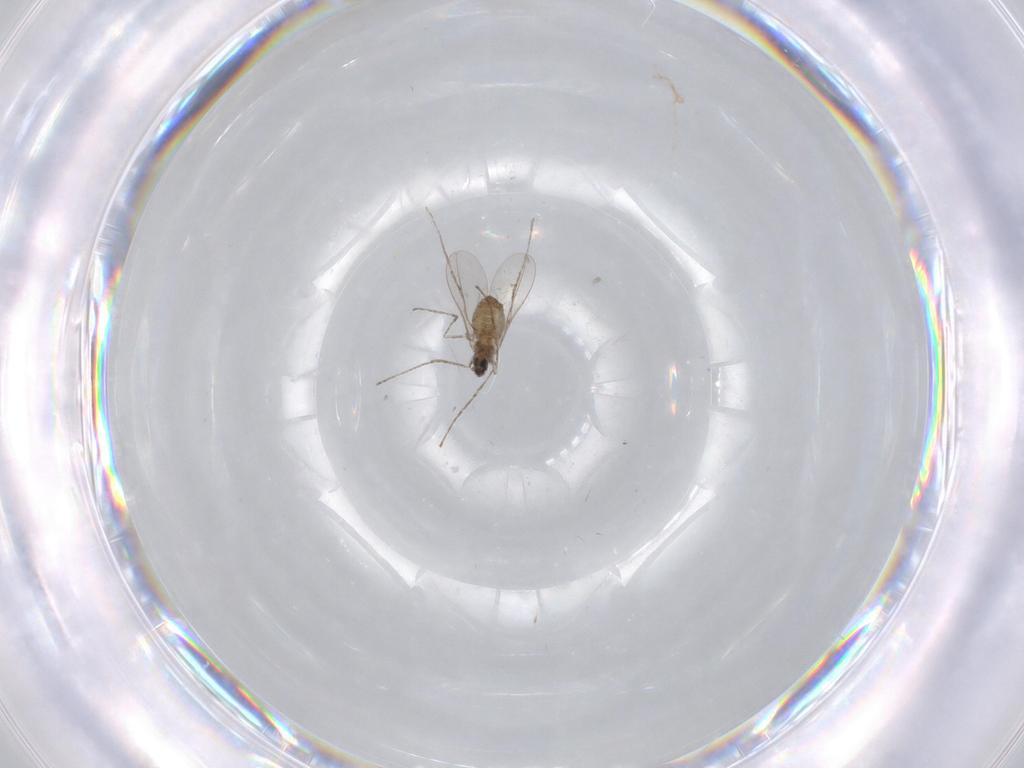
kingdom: Animalia
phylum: Arthropoda
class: Insecta
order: Diptera
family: Cecidomyiidae
